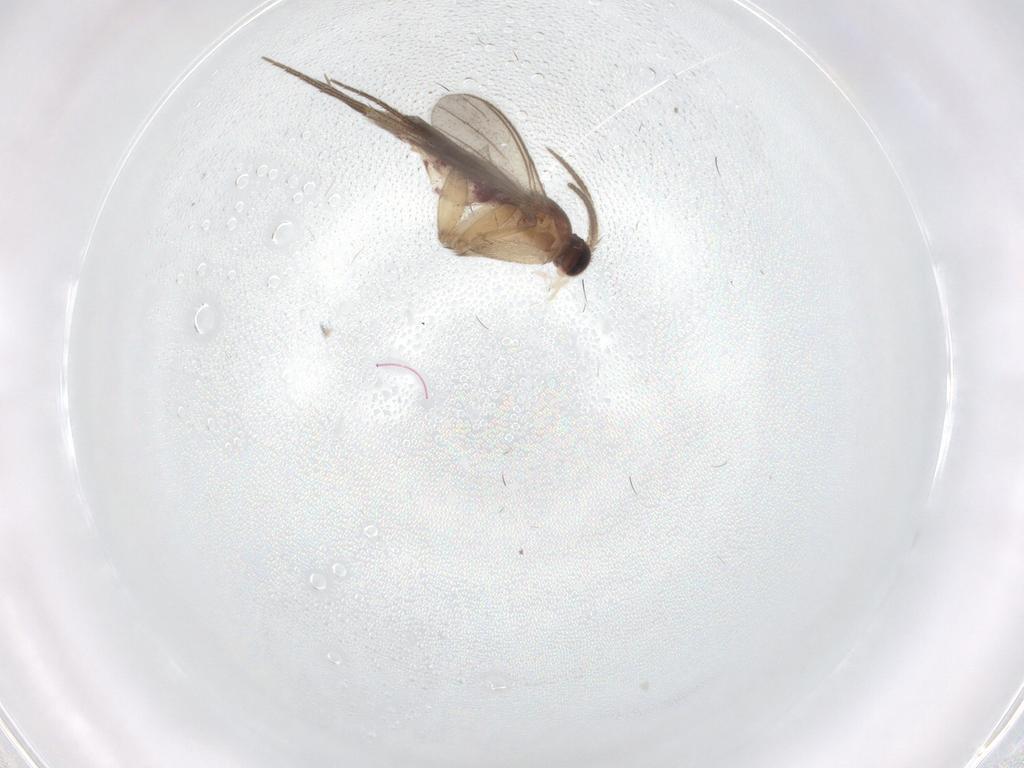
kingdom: Animalia
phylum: Arthropoda
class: Insecta
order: Diptera
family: Mycetophilidae
